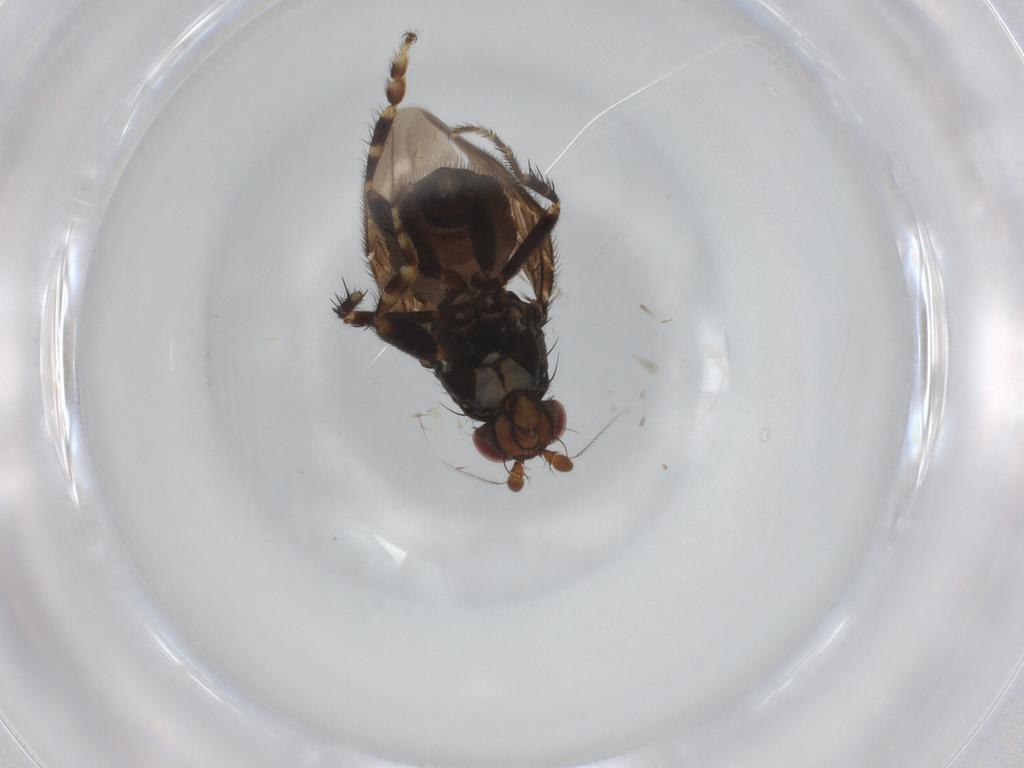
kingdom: Animalia
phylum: Arthropoda
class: Insecta
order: Diptera
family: Sphaeroceridae
